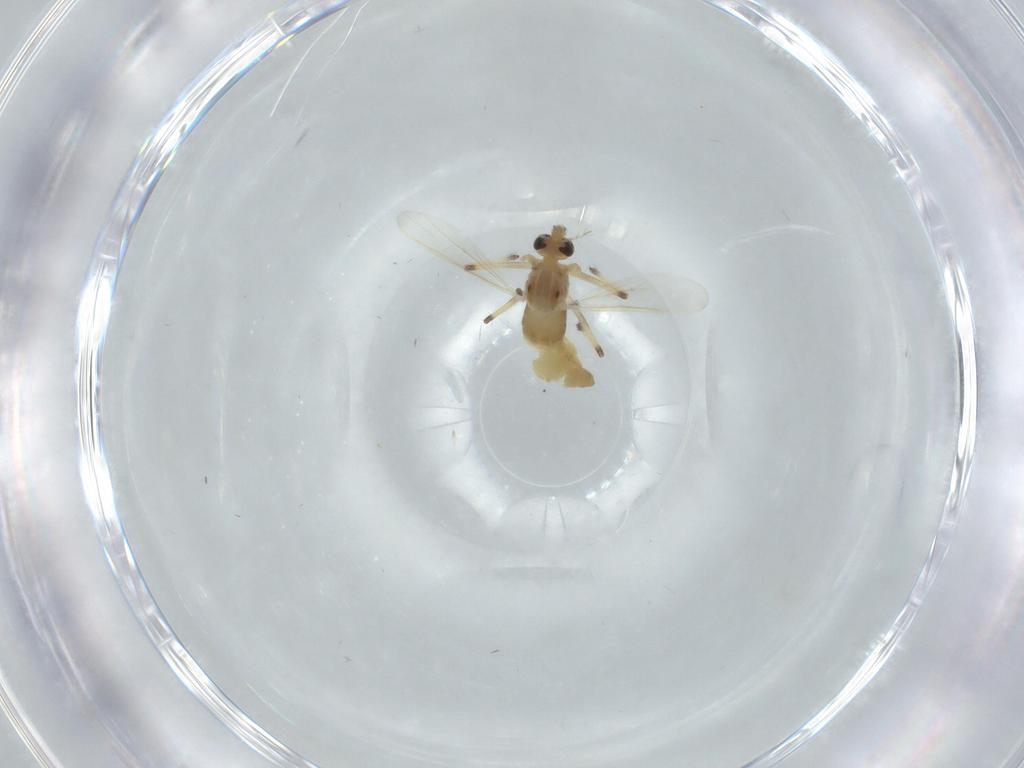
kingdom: Animalia
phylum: Arthropoda
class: Insecta
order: Diptera
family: Chironomidae
